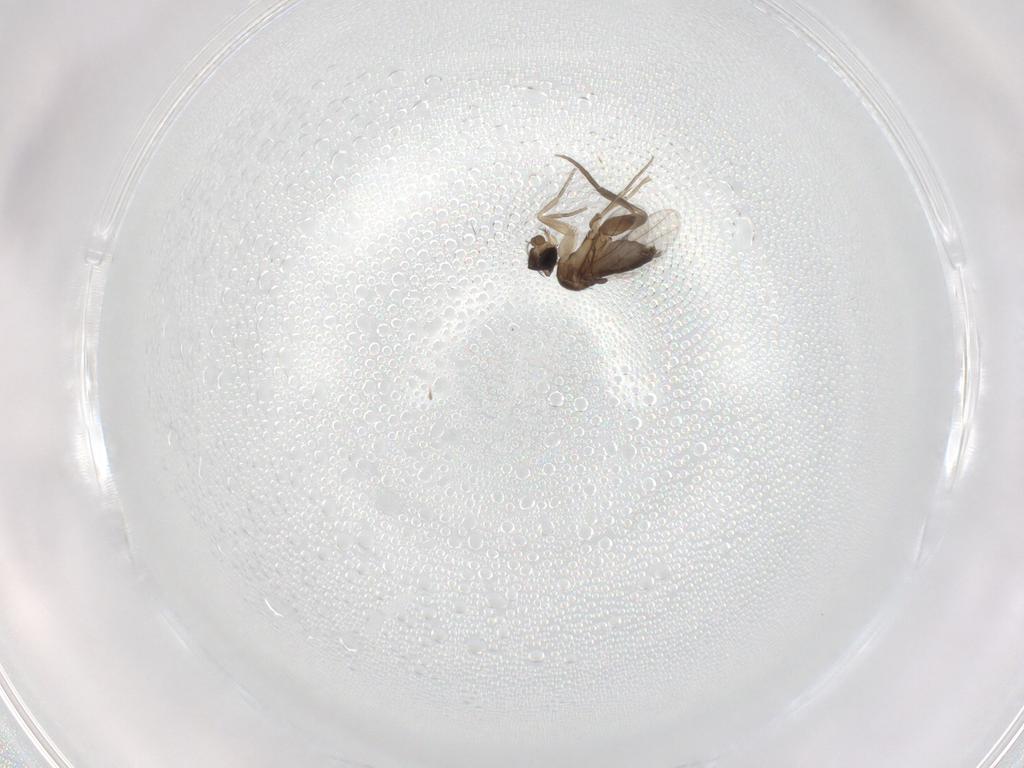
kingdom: Animalia
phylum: Arthropoda
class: Insecta
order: Diptera
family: Phoridae
